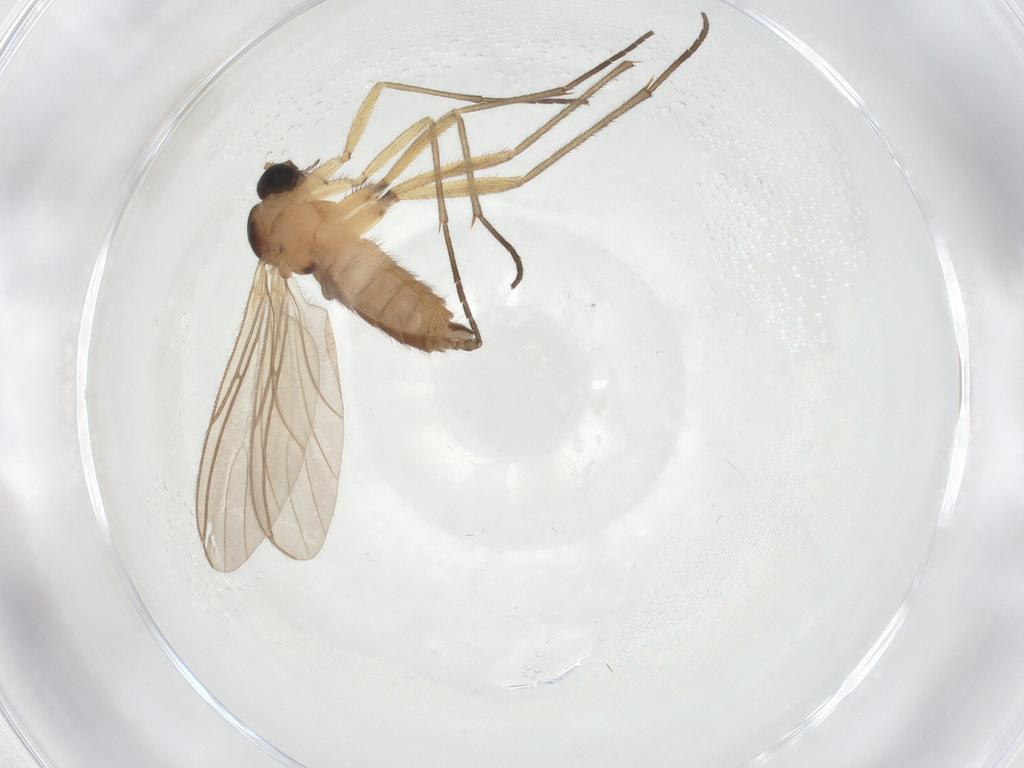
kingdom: Animalia
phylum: Arthropoda
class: Insecta
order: Diptera
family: Sciaridae
